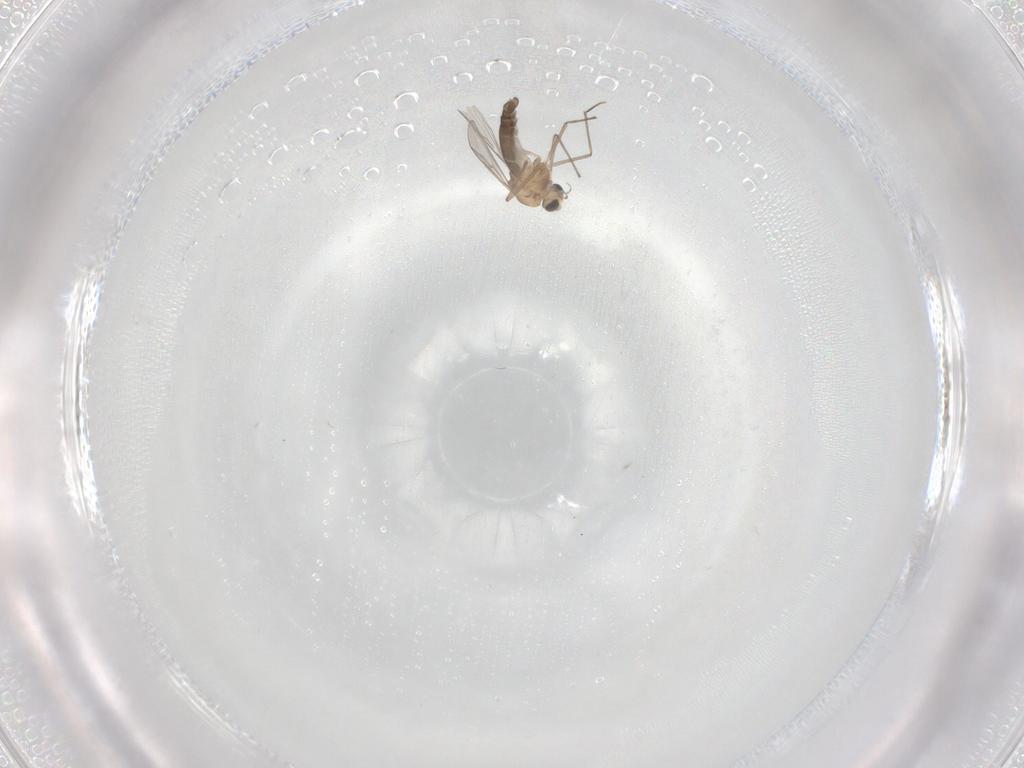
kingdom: Animalia
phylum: Arthropoda
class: Insecta
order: Diptera
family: Chironomidae
